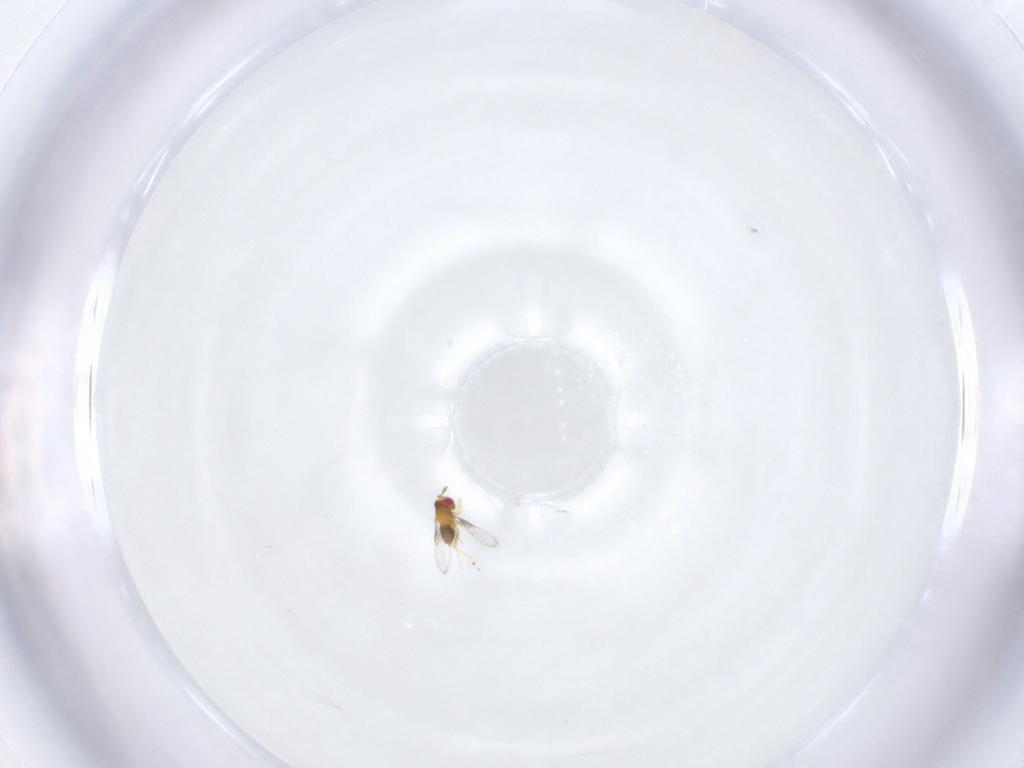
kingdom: Animalia
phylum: Arthropoda
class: Insecta
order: Hymenoptera
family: Trichogrammatidae
